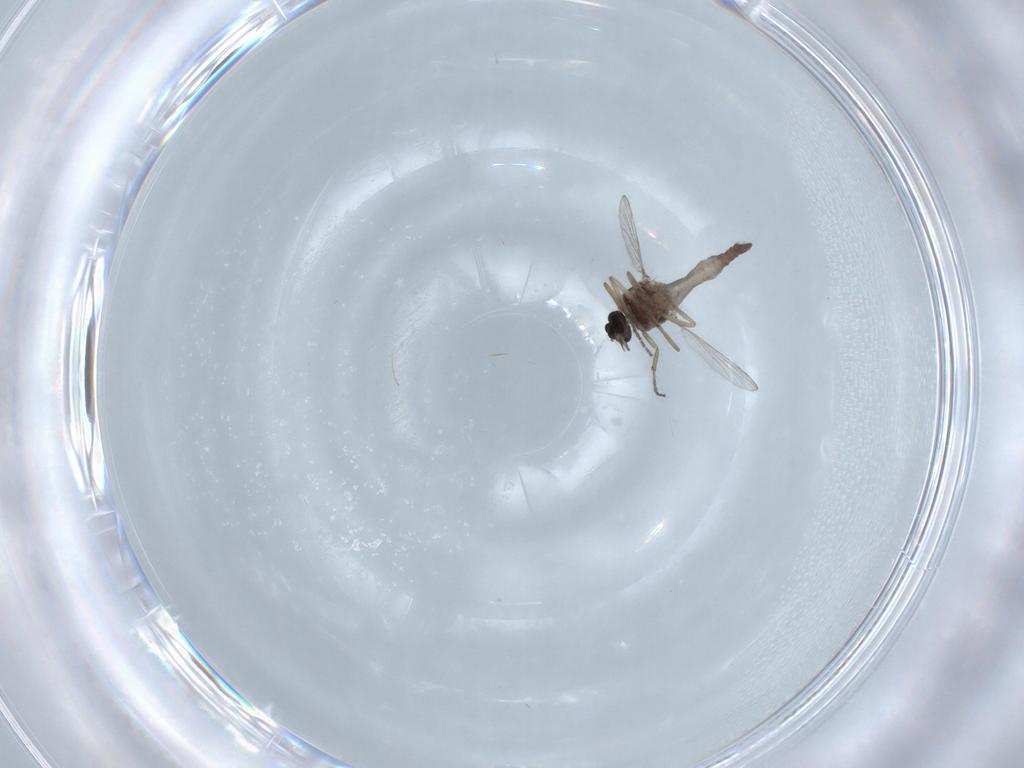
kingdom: Animalia
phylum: Arthropoda
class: Insecta
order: Diptera
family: Ceratopogonidae
